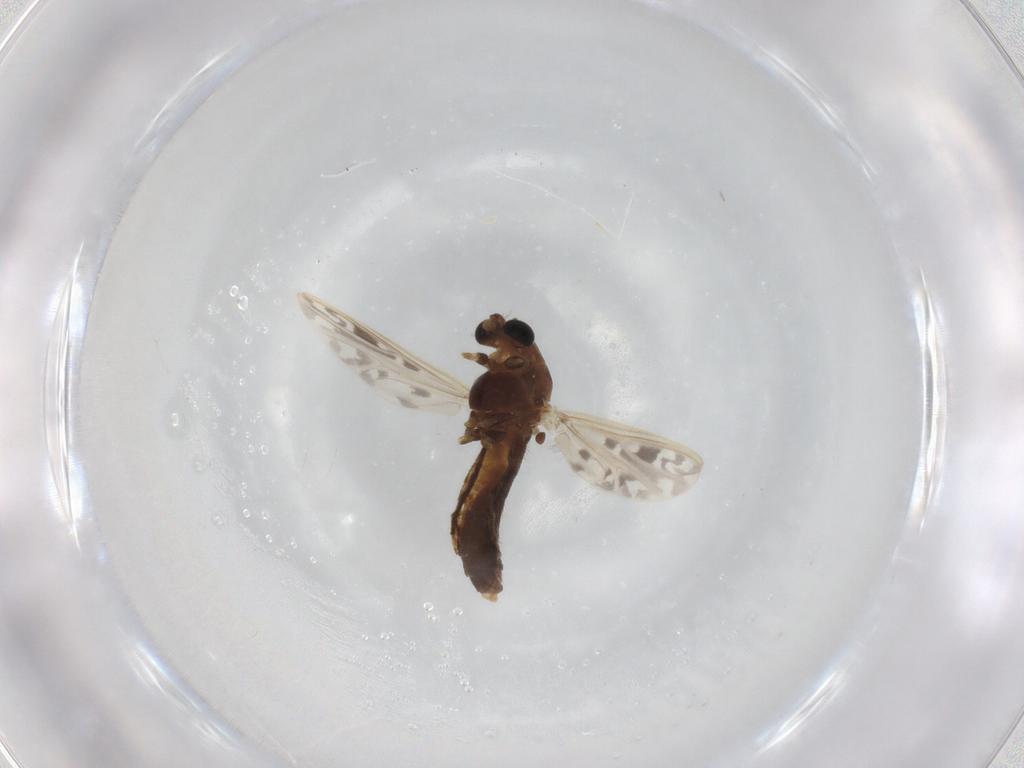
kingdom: Animalia
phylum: Arthropoda
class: Insecta
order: Diptera
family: Chironomidae
